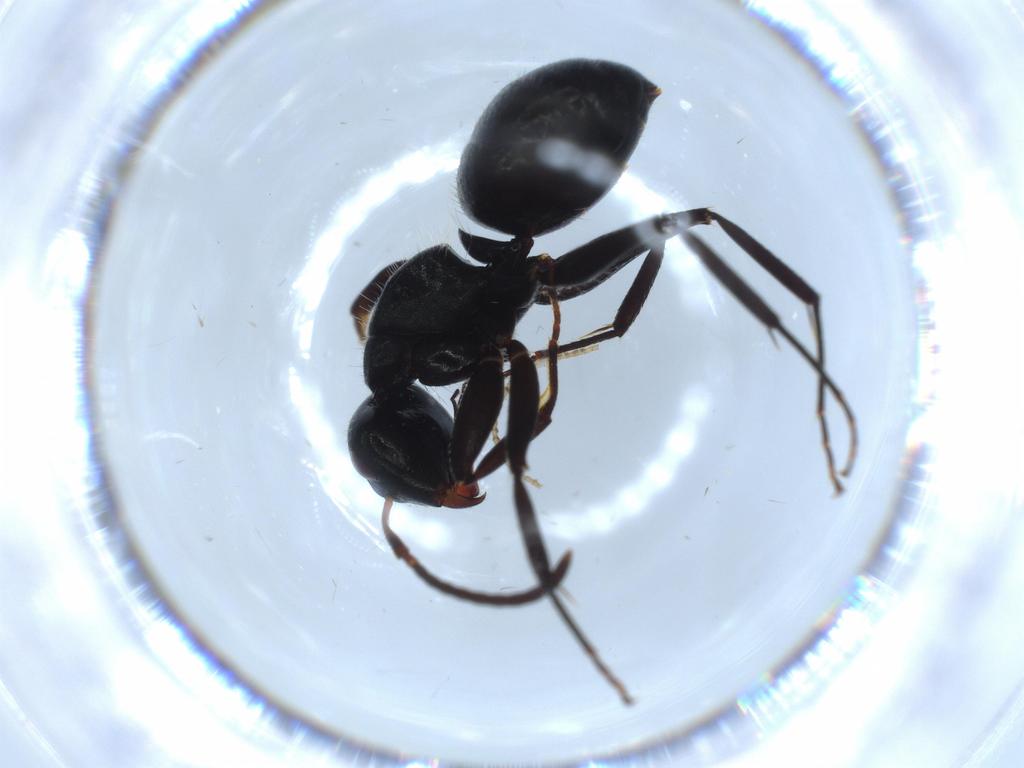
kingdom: Animalia
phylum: Arthropoda
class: Insecta
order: Hymenoptera
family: Formicidae
